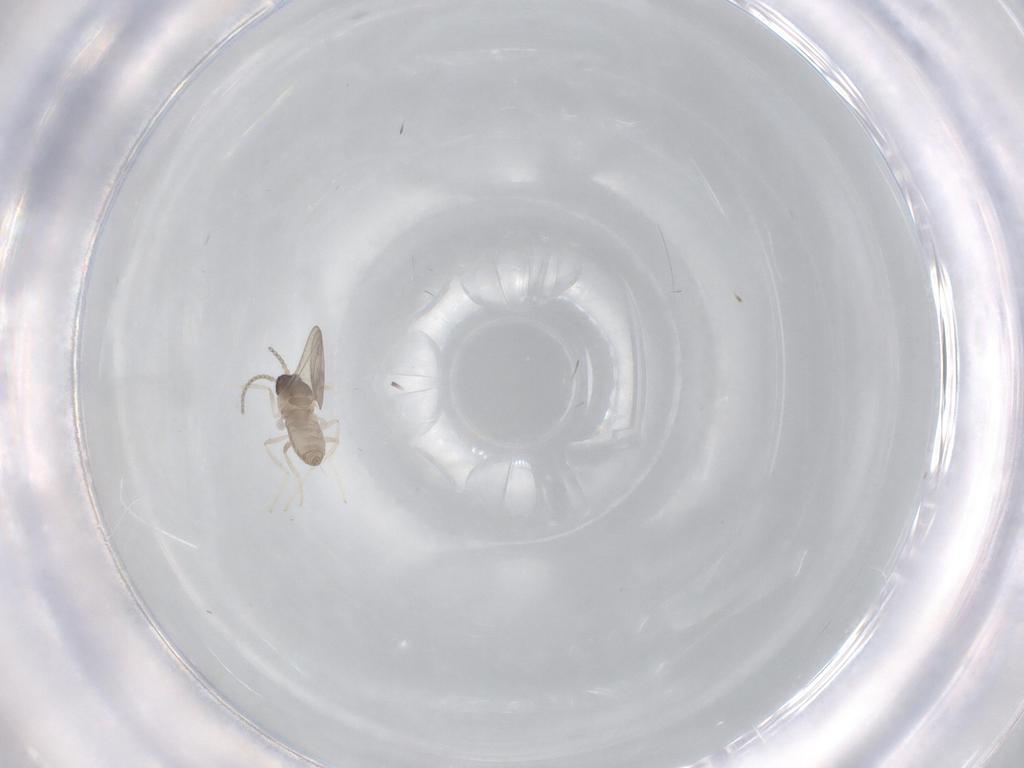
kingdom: Animalia
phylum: Arthropoda
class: Insecta
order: Diptera
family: Cecidomyiidae
